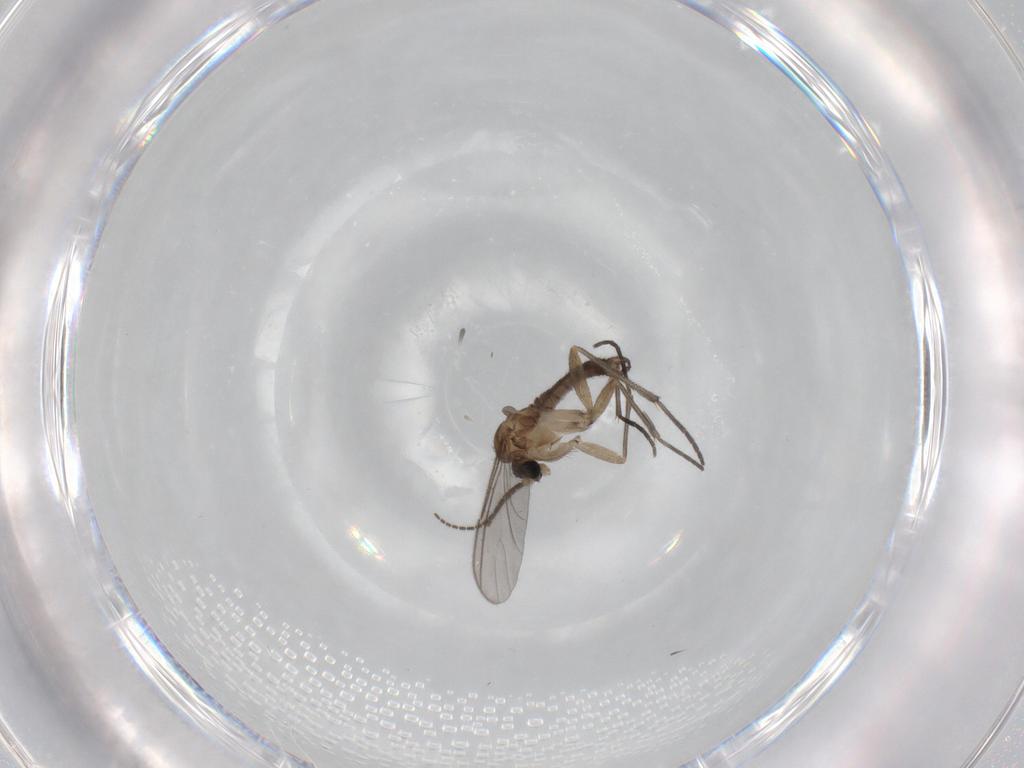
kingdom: Animalia
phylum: Arthropoda
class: Insecta
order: Diptera
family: Sciaridae
